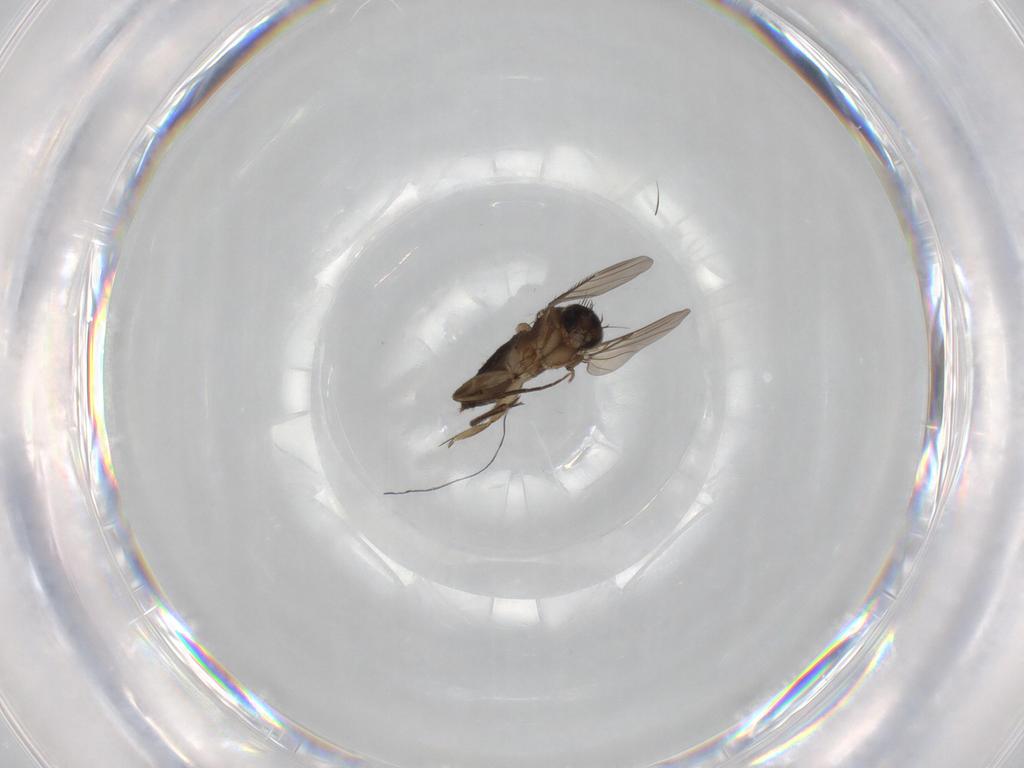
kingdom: Animalia
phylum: Arthropoda
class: Insecta
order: Diptera
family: Phoridae
